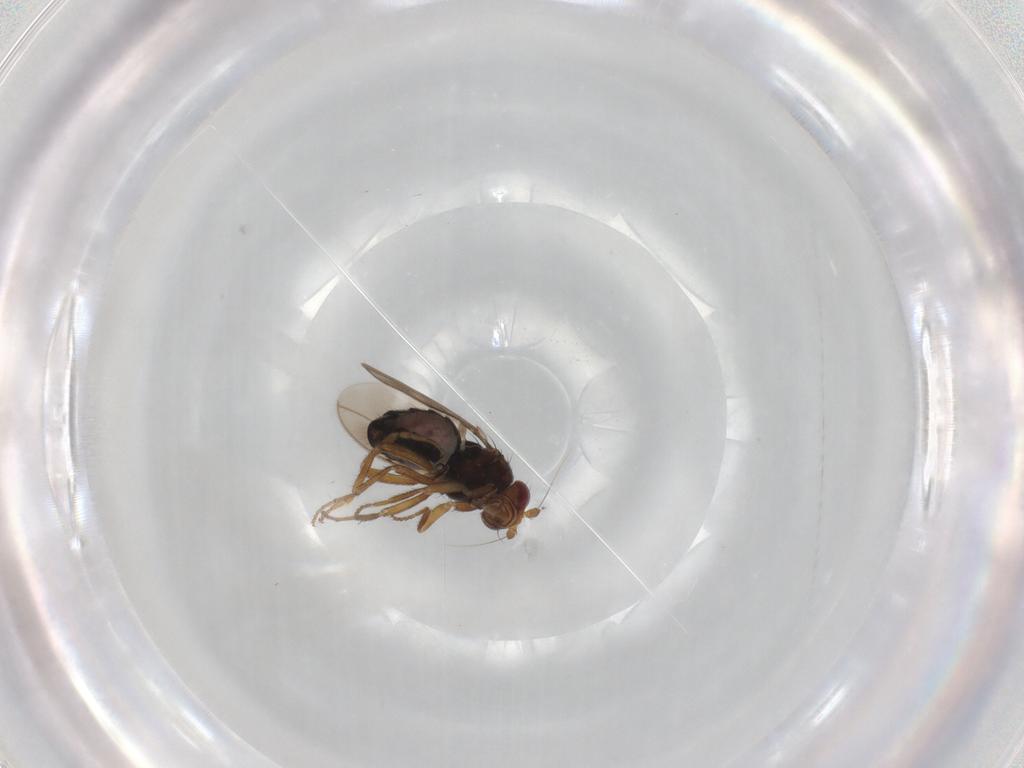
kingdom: Animalia
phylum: Arthropoda
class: Insecta
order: Diptera
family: Sphaeroceridae
